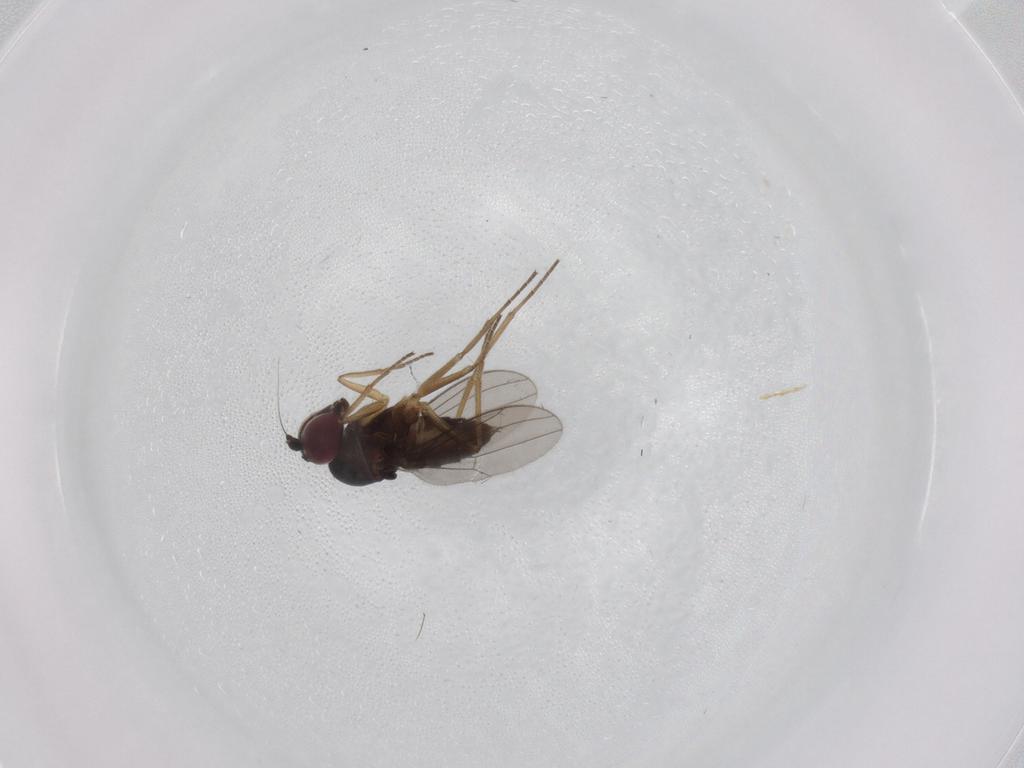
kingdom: Animalia
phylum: Arthropoda
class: Insecta
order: Diptera
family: Dolichopodidae
